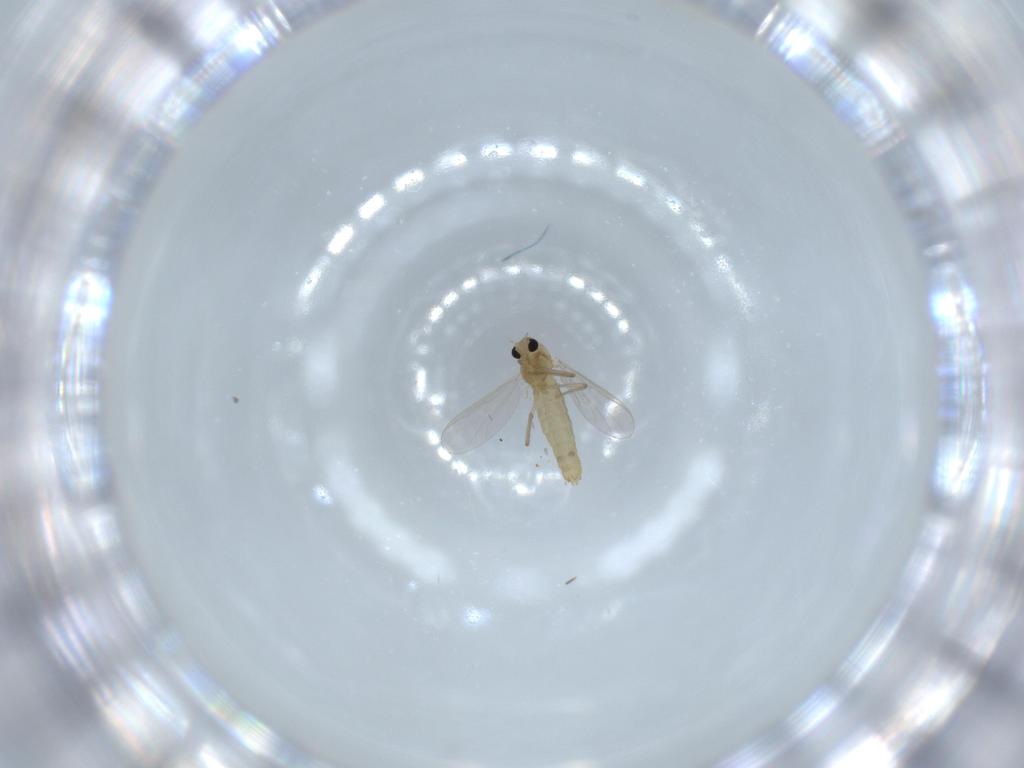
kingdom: Animalia
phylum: Arthropoda
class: Insecta
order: Diptera
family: Chironomidae
